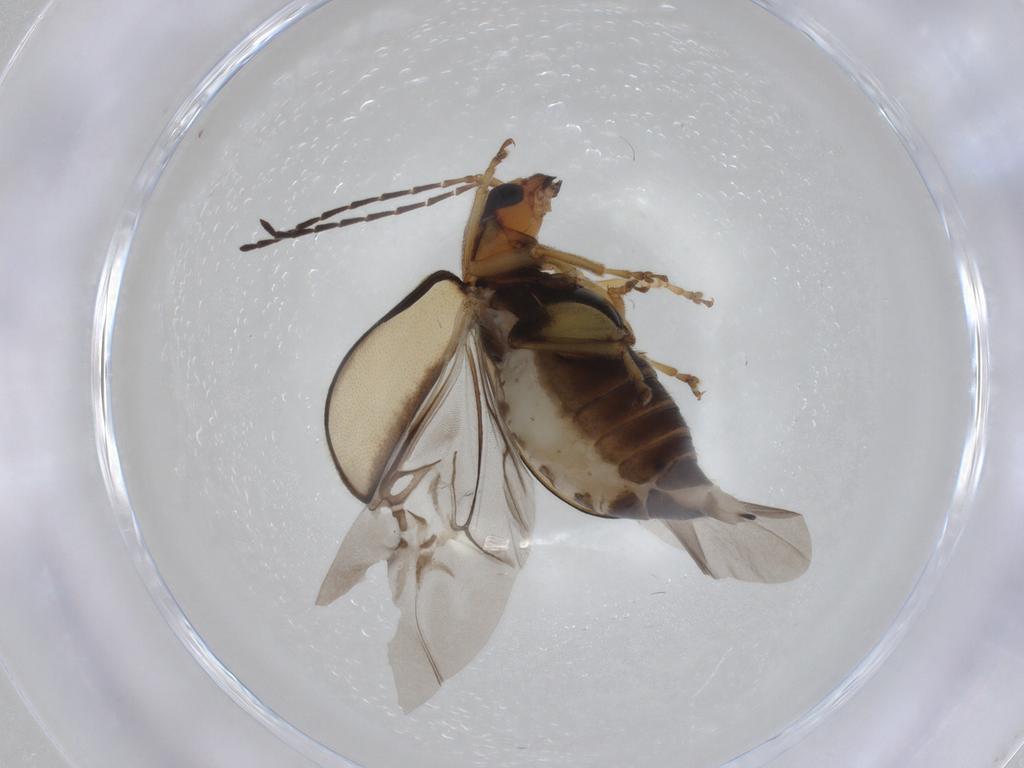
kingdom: Animalia
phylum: Arthropoda
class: Insecta
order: Coleoptera
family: Chrysomelidae
